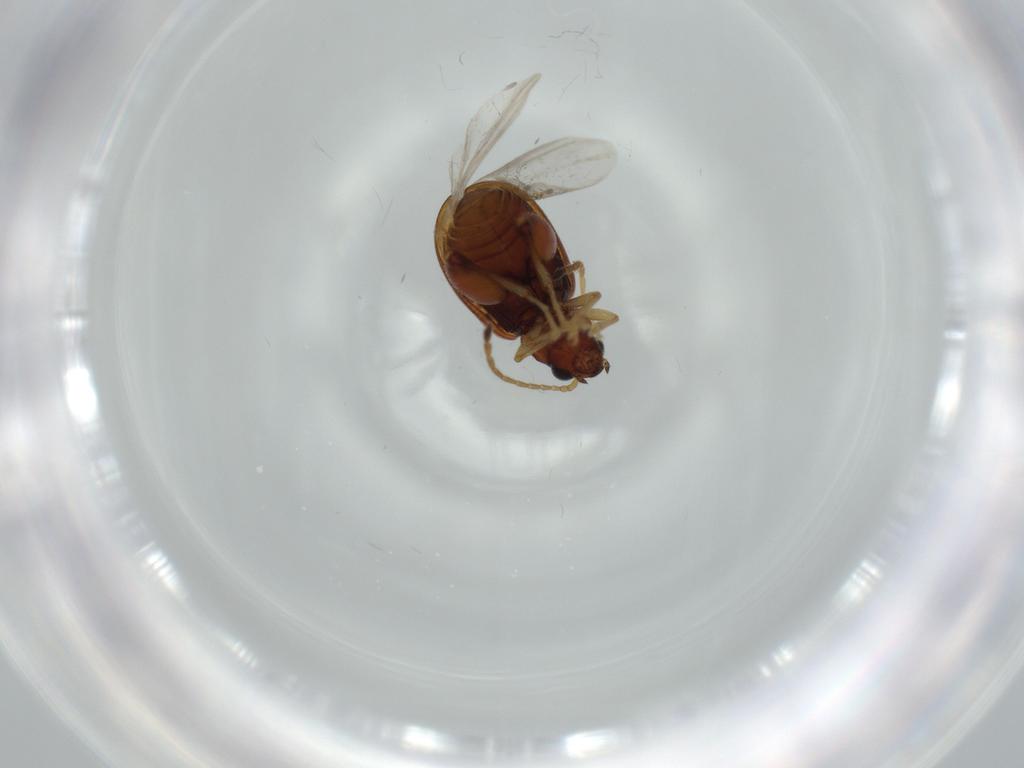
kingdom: Animalia
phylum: Arthropoda
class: Insecta
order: Coleoptera
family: Chrysomelidae
